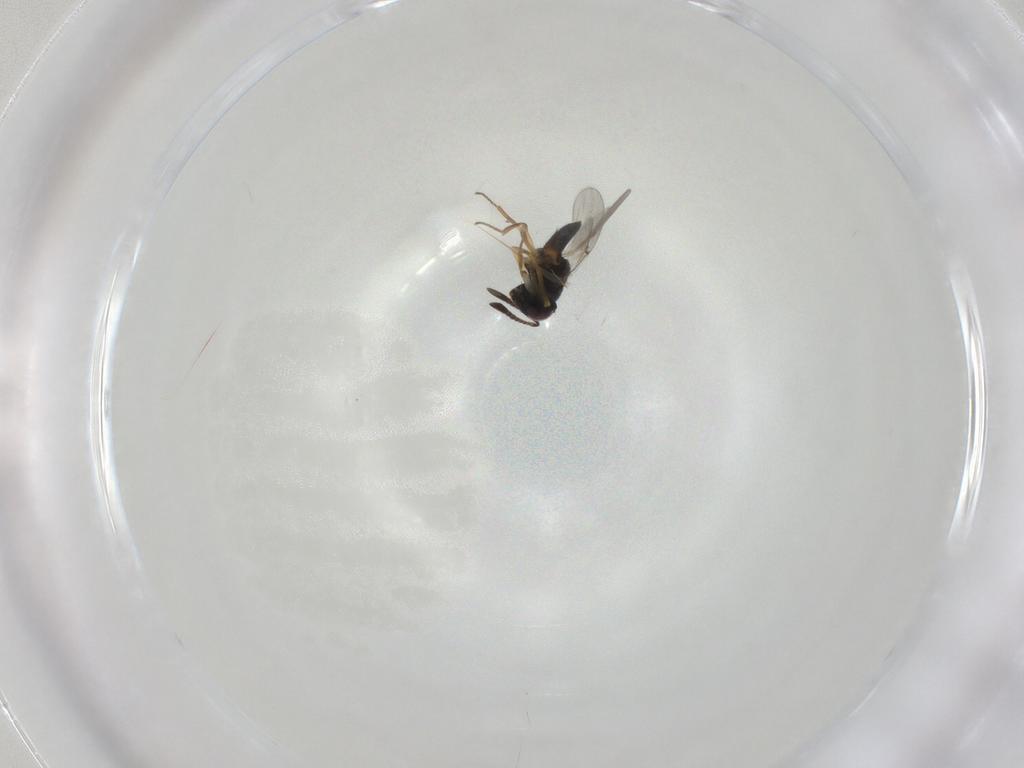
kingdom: Animalia
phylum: Arthropoda
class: Insecta
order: Hymenoptera
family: Encyrtidae
